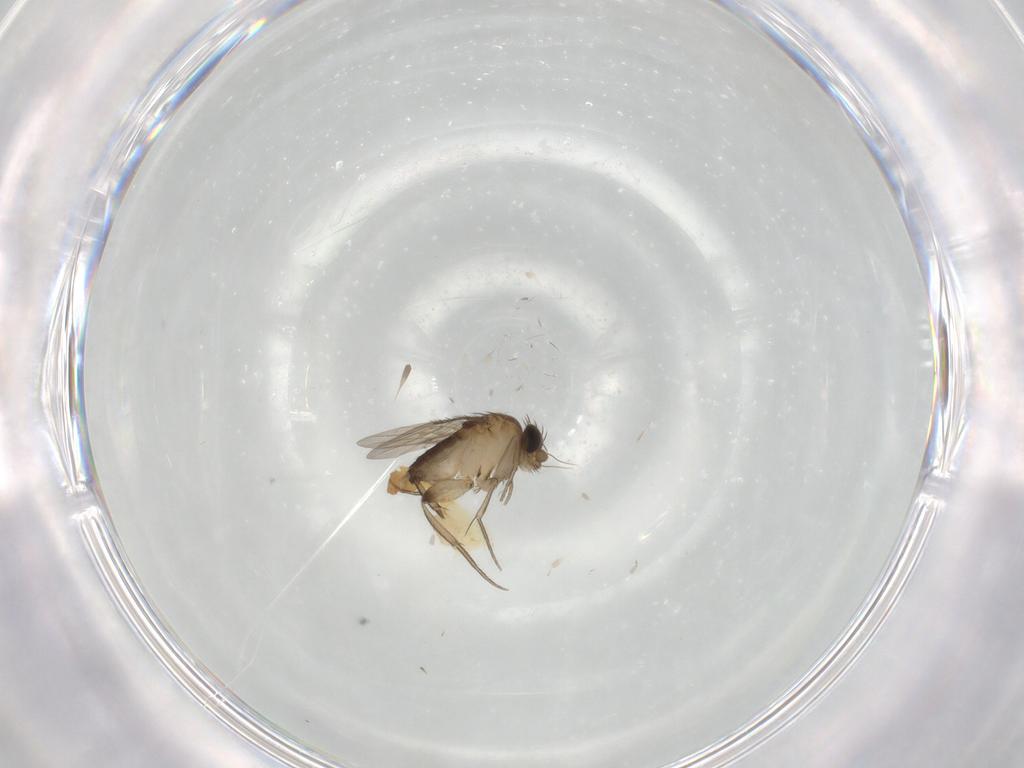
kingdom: Animalia
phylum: Arthropoda
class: Insecta
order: Diptera
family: Phoridae
